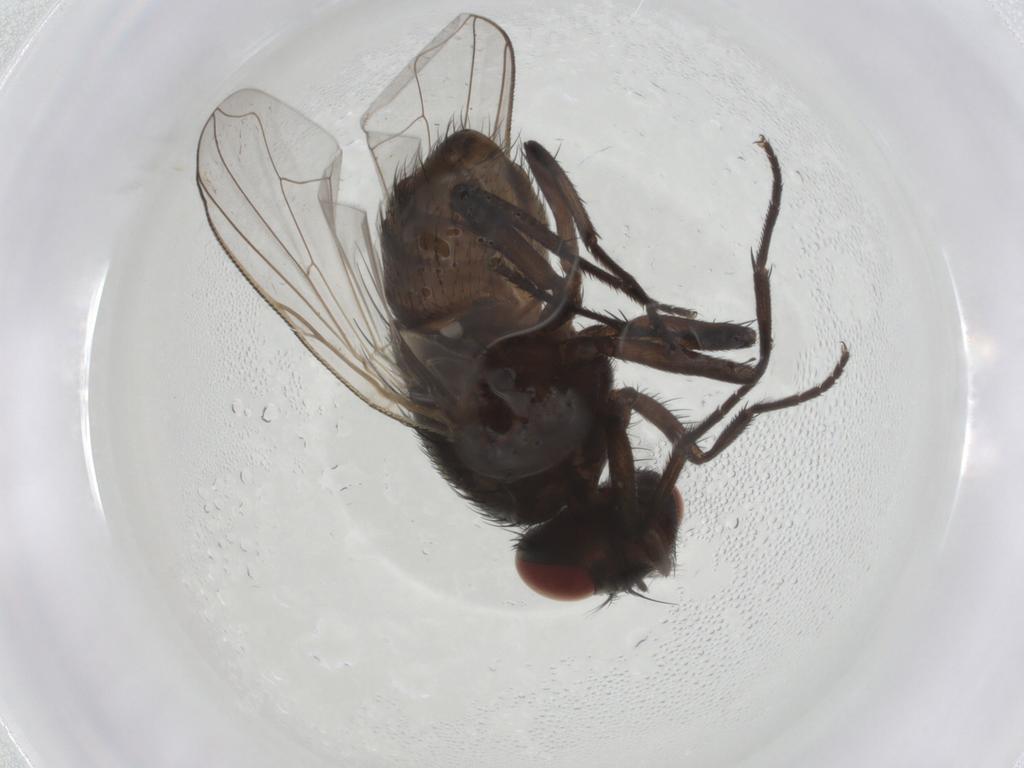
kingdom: Animalia
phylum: Arthropoda
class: Insecta
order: Diptera
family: Muscidae
